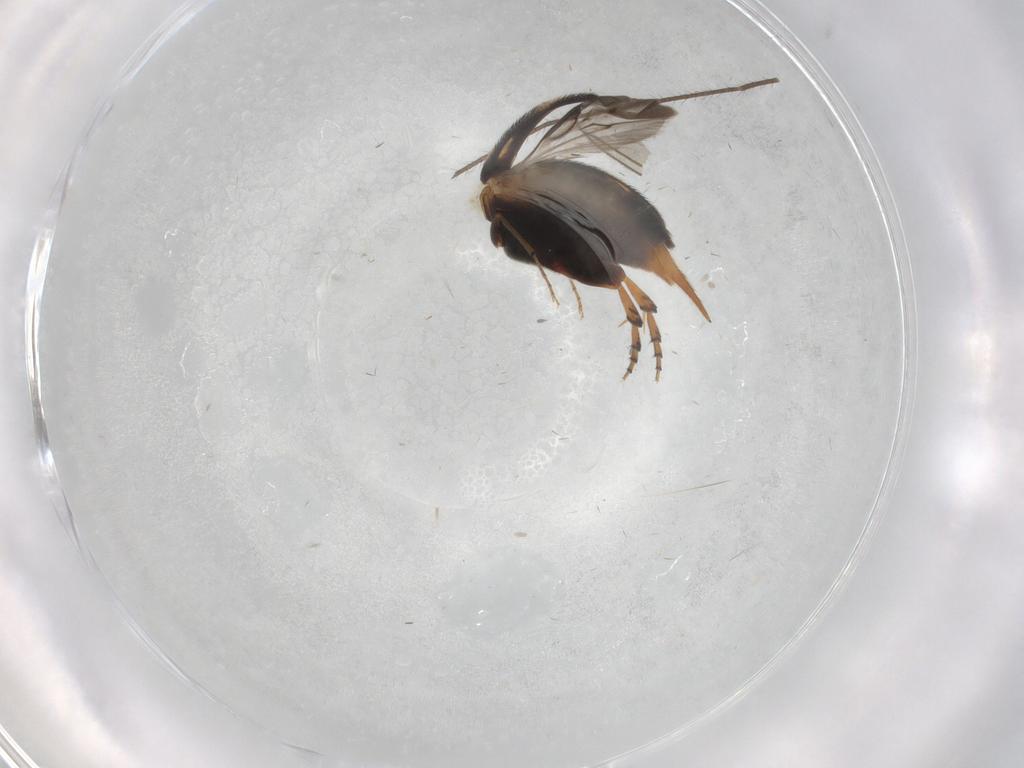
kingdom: Animalia
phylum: Arthropoda
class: Insecta
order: Coleoptera
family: Mordellidae
